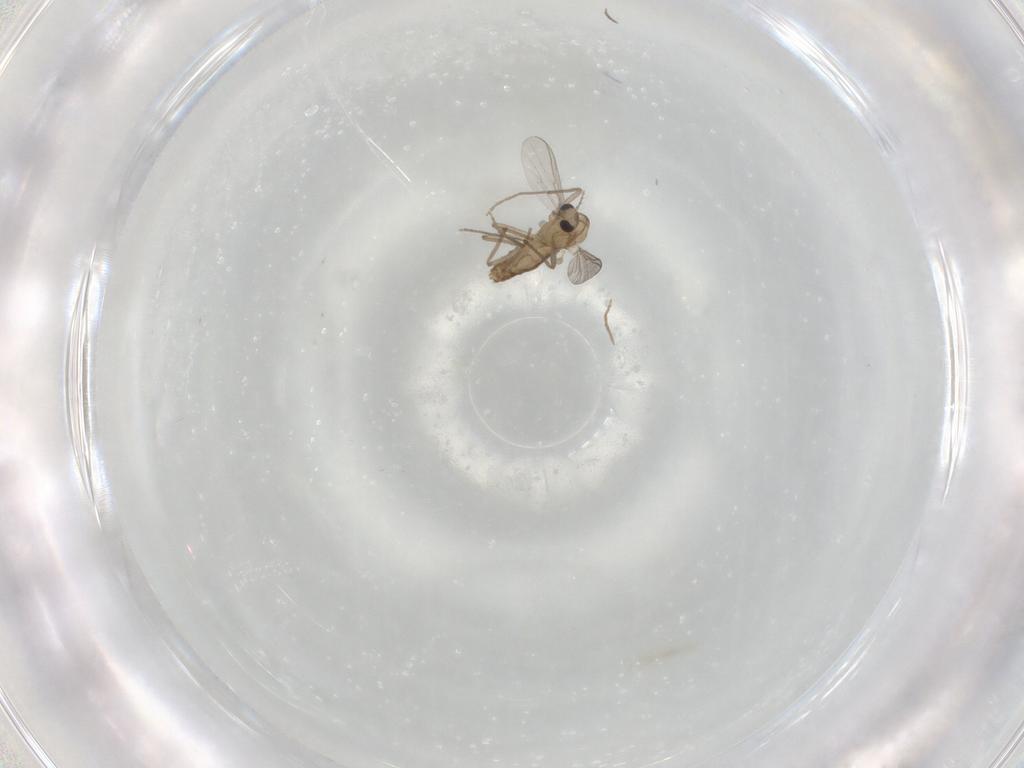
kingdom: Animalia
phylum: Arthropoda
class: Insecta
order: Diptera
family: Chironomidae
